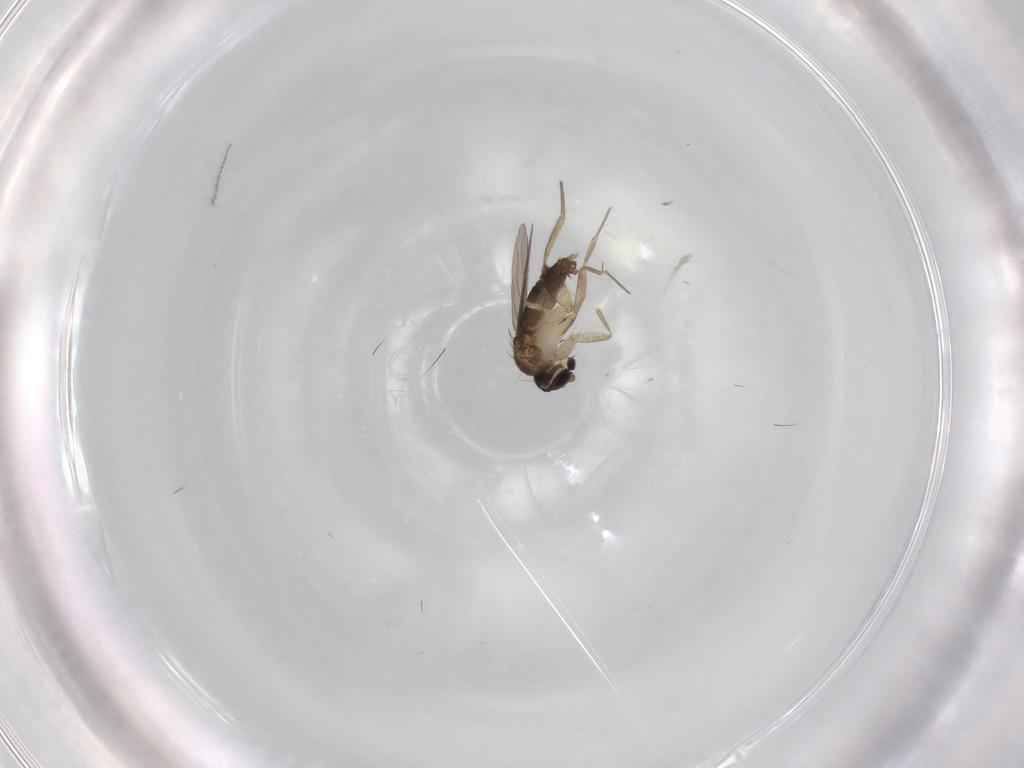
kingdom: Animalia
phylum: Arthropoda
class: Insecta
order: Diptera
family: Phoridae
